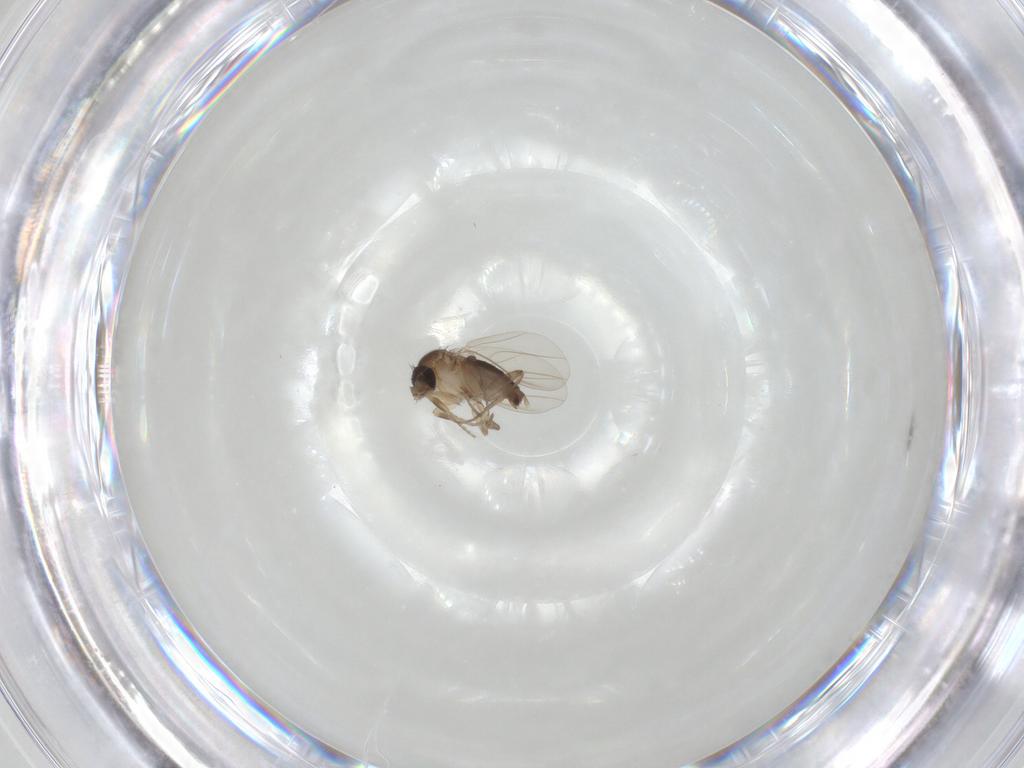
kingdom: Animalia
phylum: Arthropoda
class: Insecta
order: Diptera
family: Phoridae
